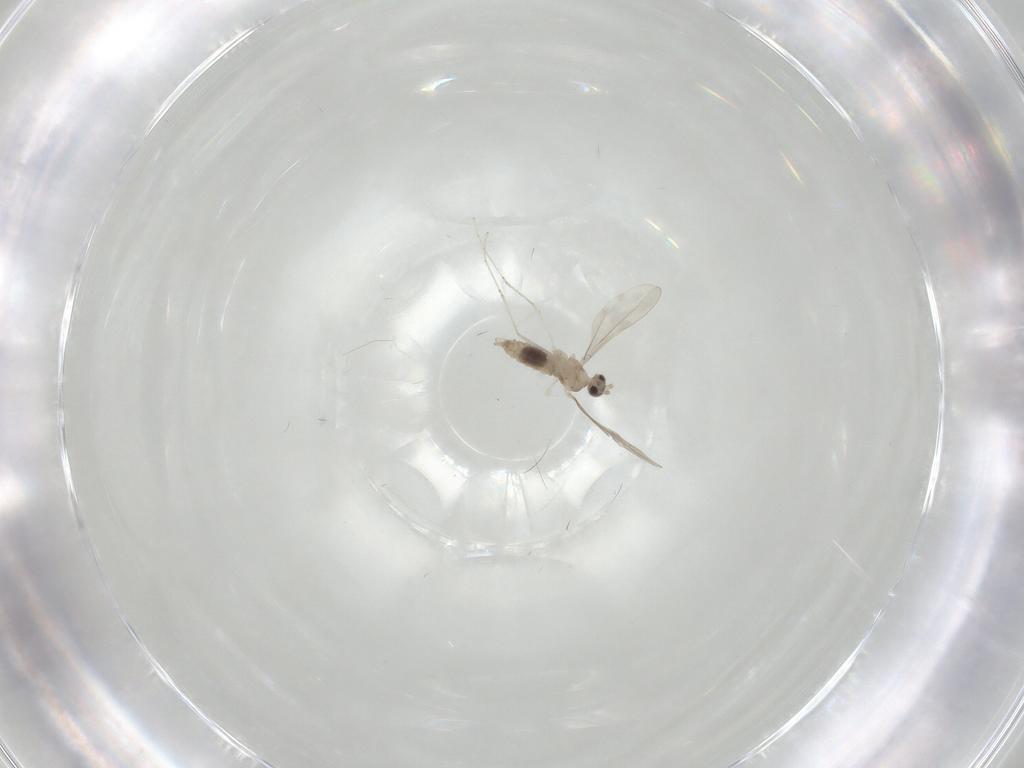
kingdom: Animalia
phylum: Arthropoda
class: Insecta
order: Diptera
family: Cecidomyiidae
